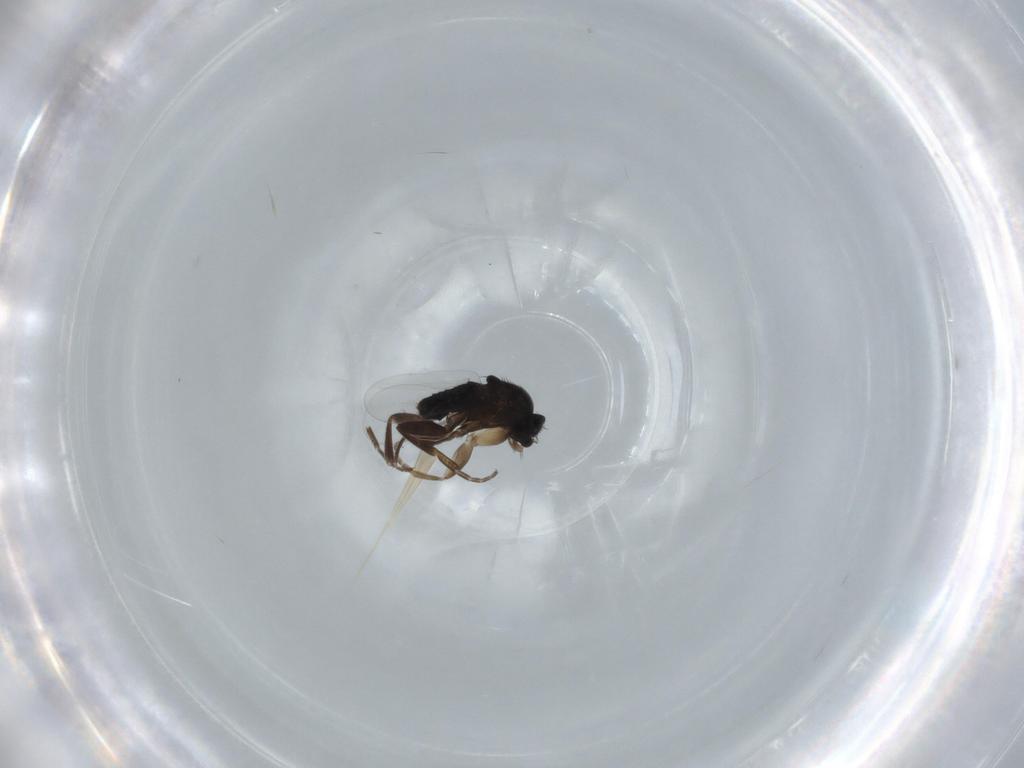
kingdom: Animalia
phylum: Arthropoda
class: Insecta
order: Diptera
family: Phoridae
